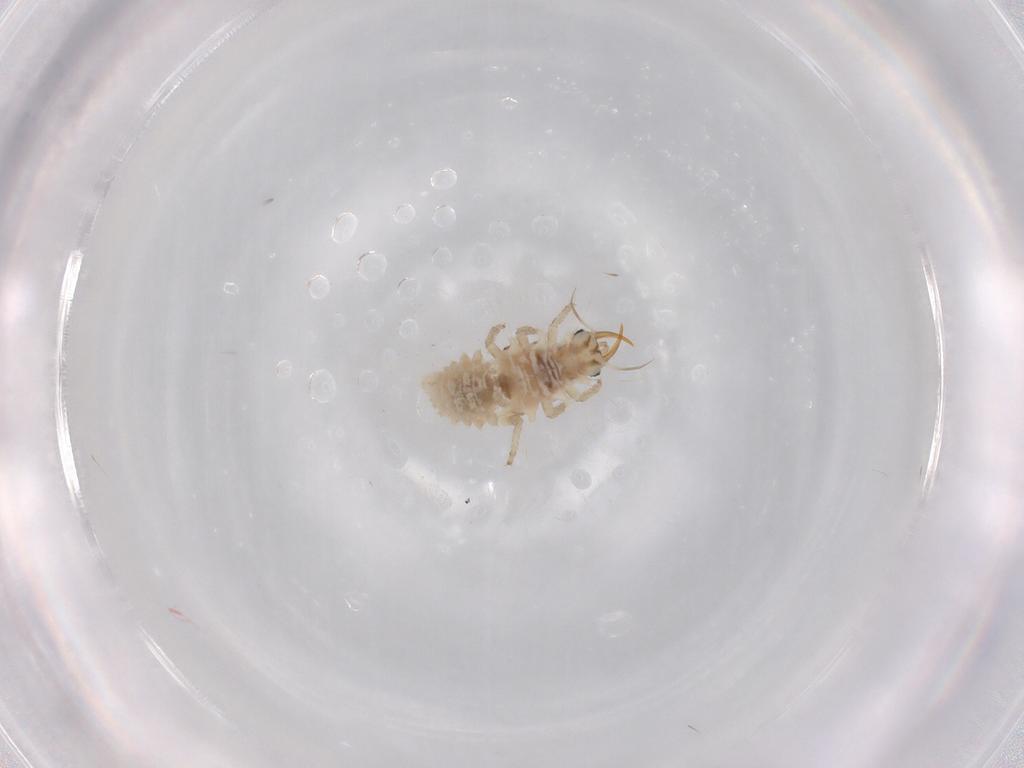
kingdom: Animalia
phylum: Arthropoda
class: Insecta
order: Neuroptera
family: Chrysopidae
